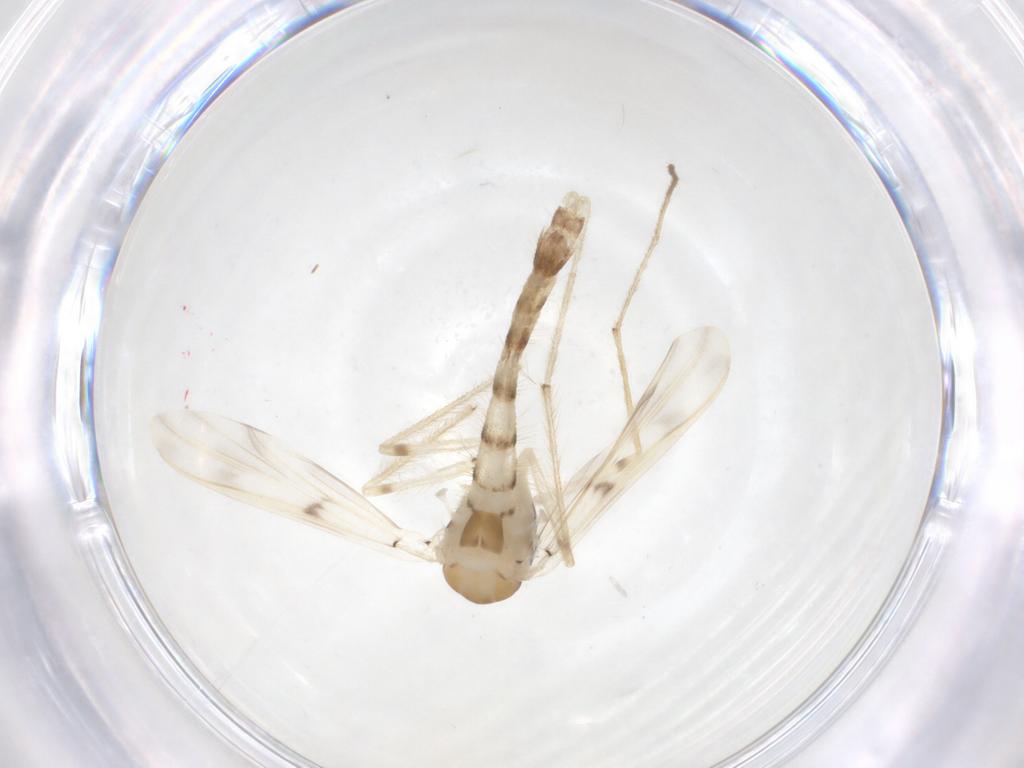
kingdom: Animalia
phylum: Arthropoda
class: Insecta
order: Diptera
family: Chironomidae
